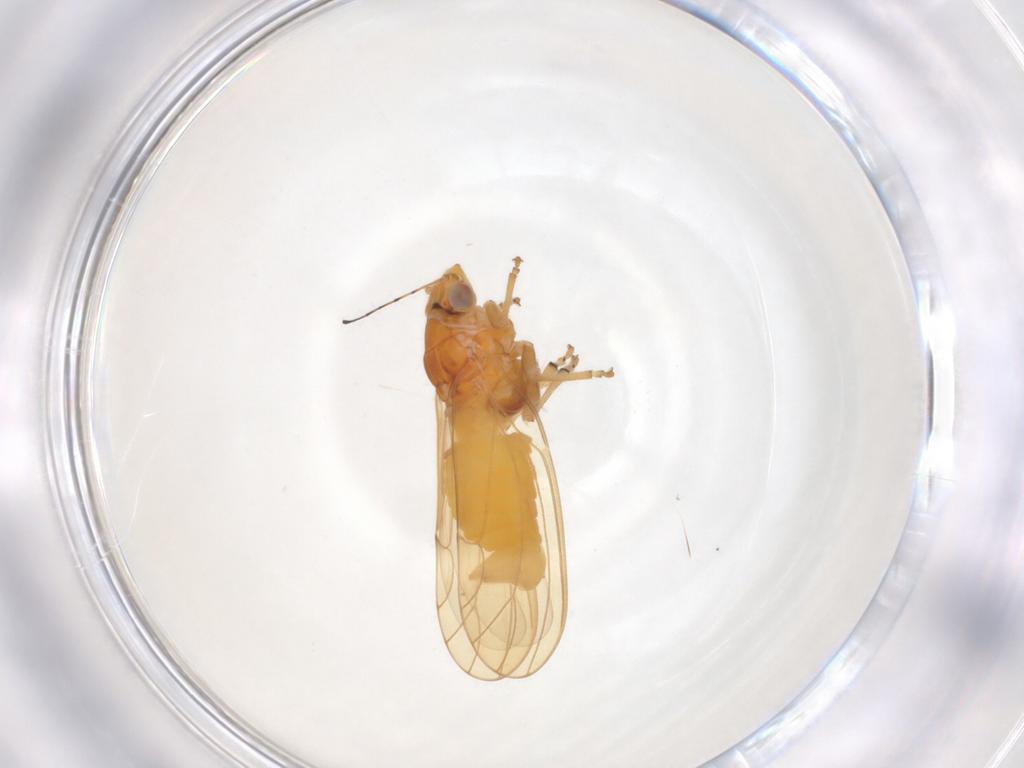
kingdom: Animalia
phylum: Arthropoda
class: Insecta
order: Hemiptera
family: Psylloidea_incertae_sedis
